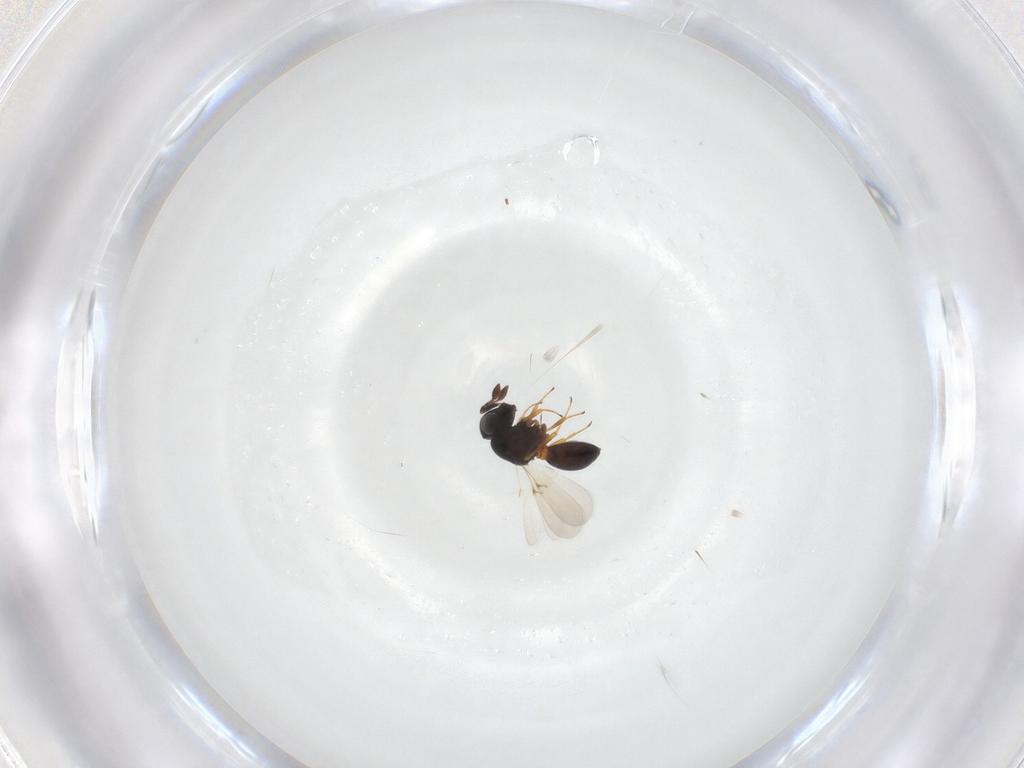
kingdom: Animalia
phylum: Arthropoda
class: Arachnida
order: Araneae
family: Pholcidae
